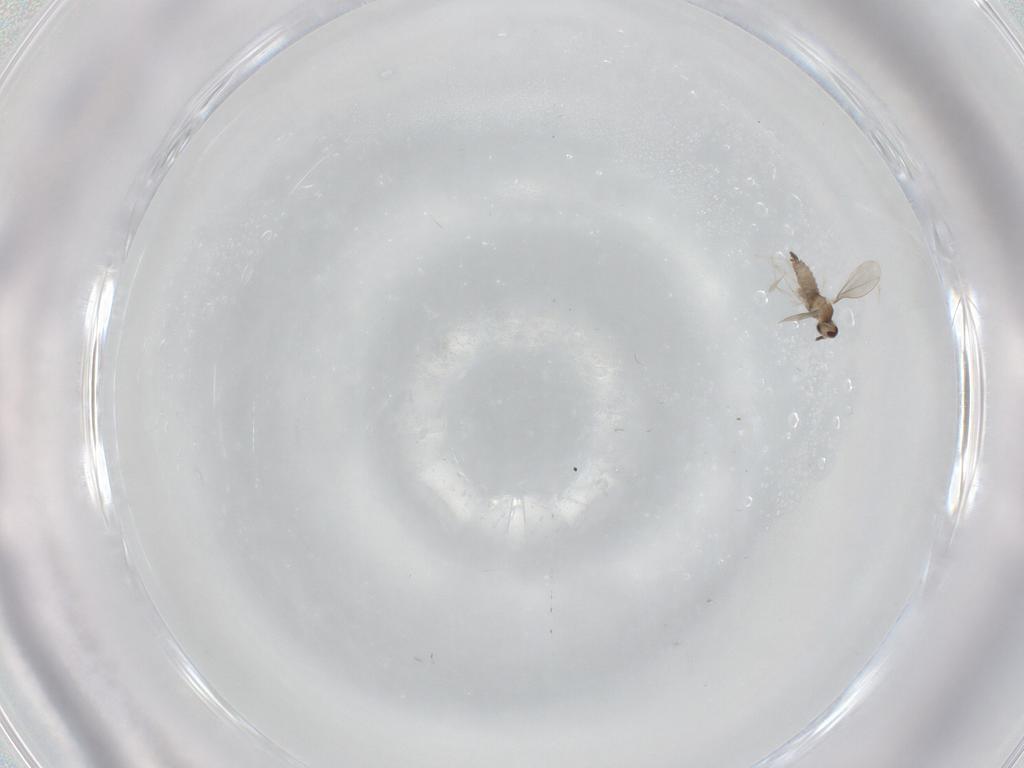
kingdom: Animalia
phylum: Arthropoda
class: Insecta
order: Diptera
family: Cecidomyiidae
